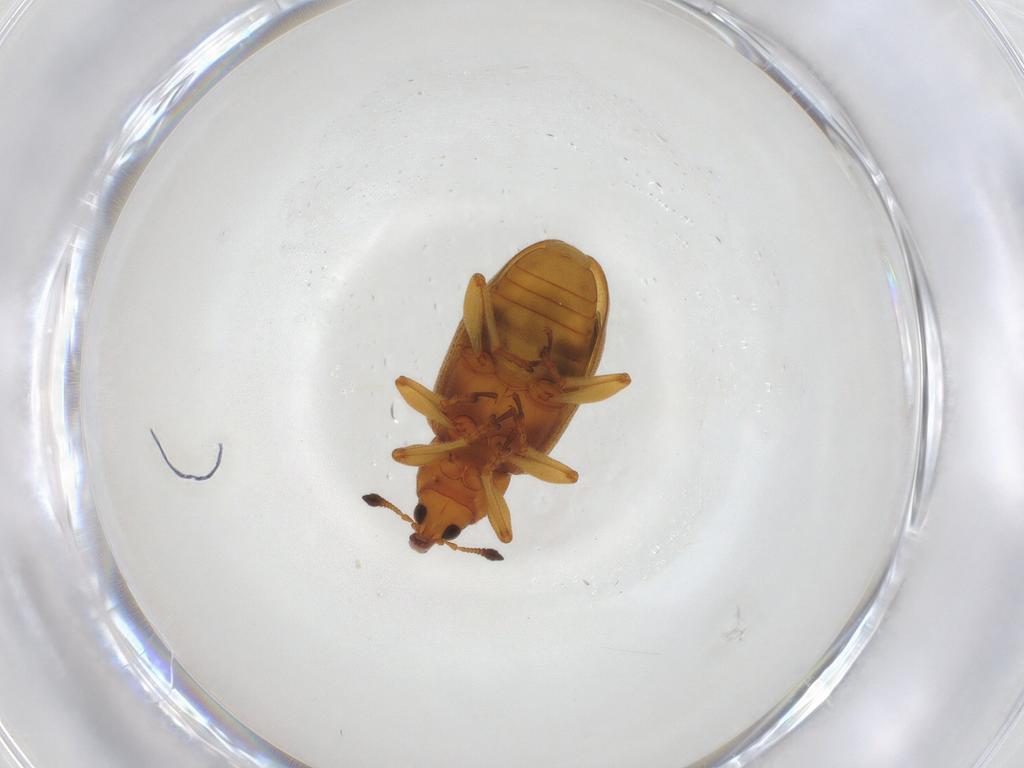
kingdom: Animalia
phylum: Arthropoda
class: Insecta
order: Coleoptera
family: Curculionidae
